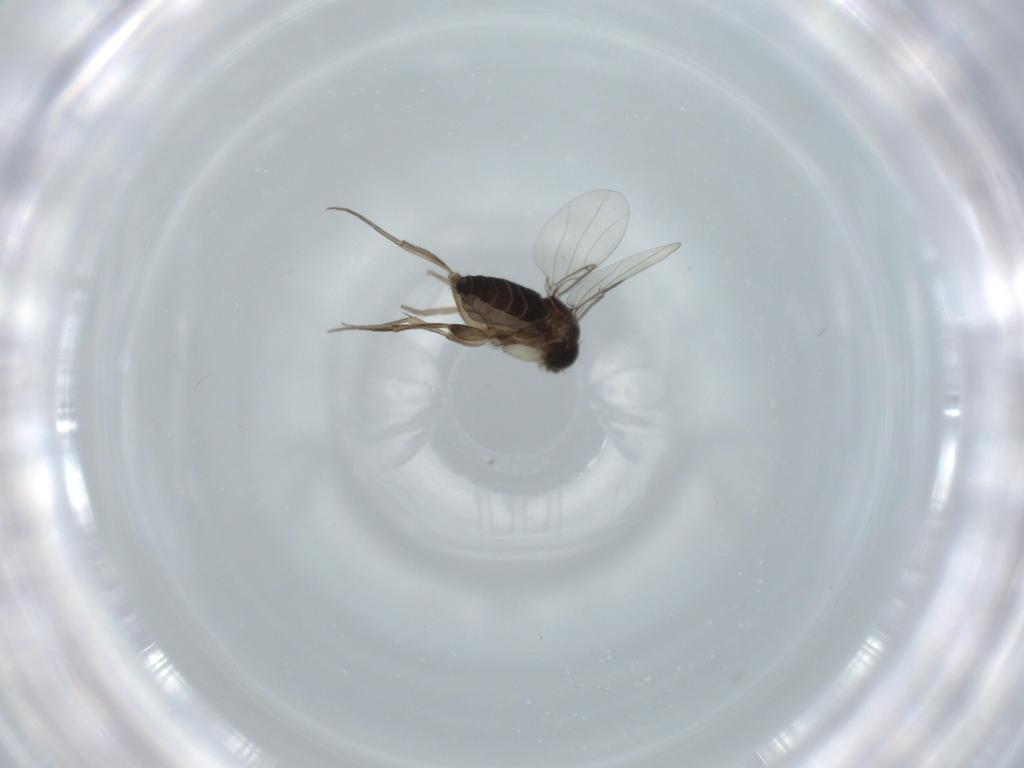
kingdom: Animalia
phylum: Arthropoda
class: Insecta
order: Diptera
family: Phoridae
